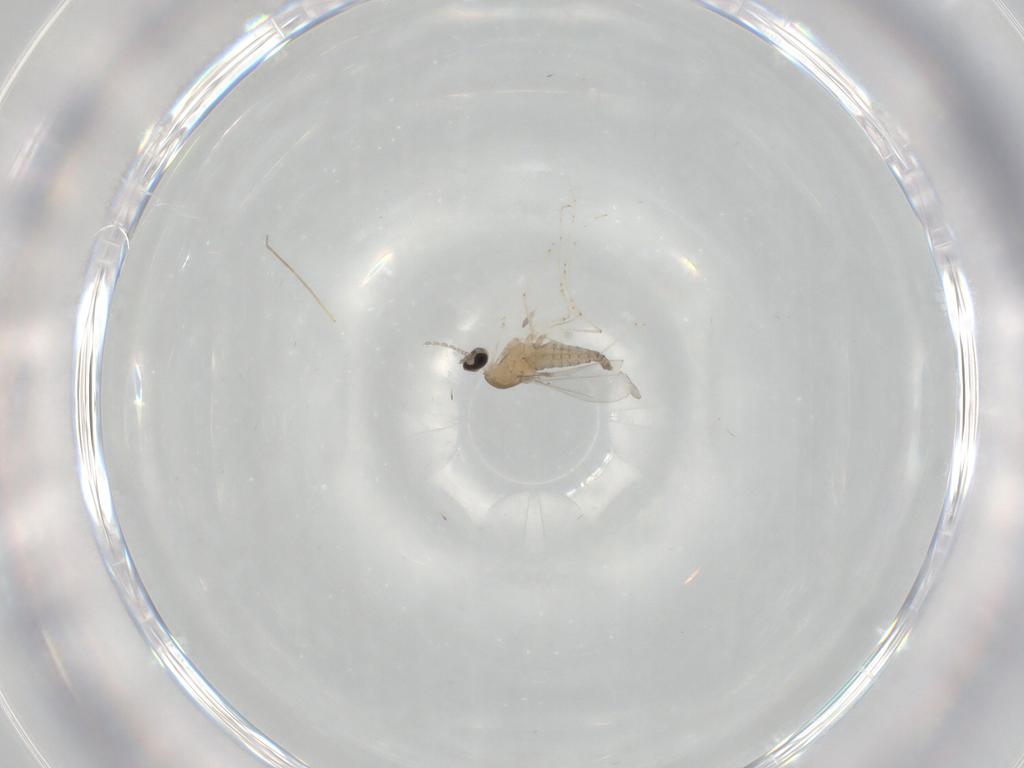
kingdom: Animalia
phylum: Arthropoda
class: Insecta
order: Diptera
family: Cecidomyiidae
